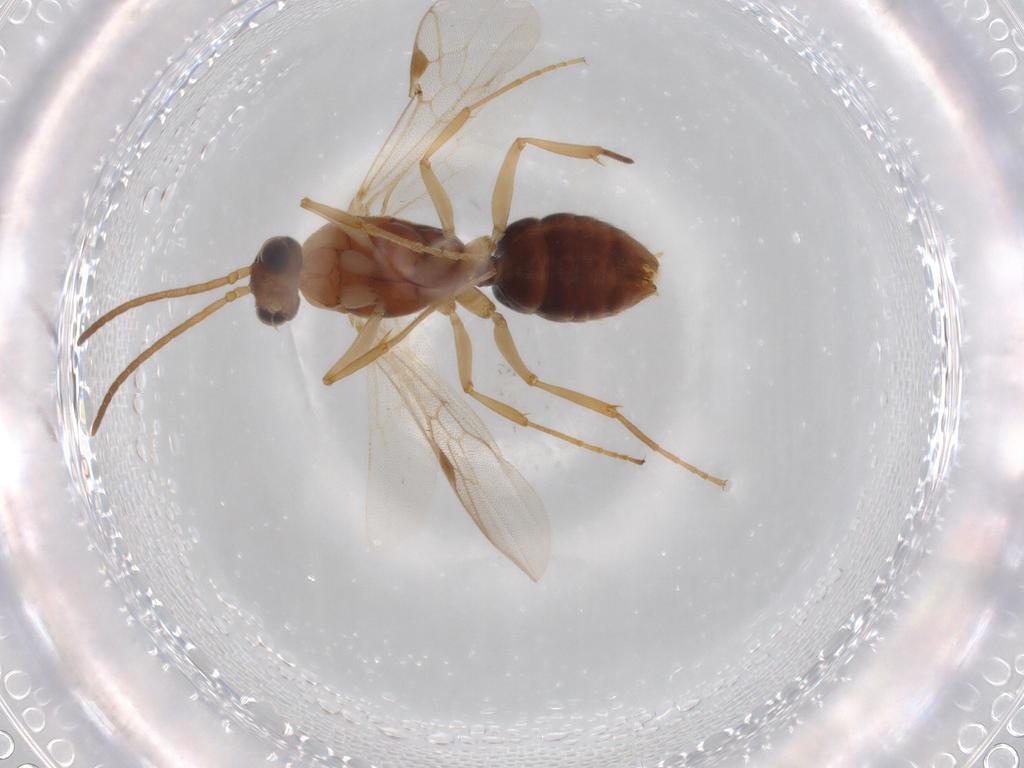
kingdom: Animalia
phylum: Arthropoda
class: Insecta
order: Hymenoptera
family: Formicidae
